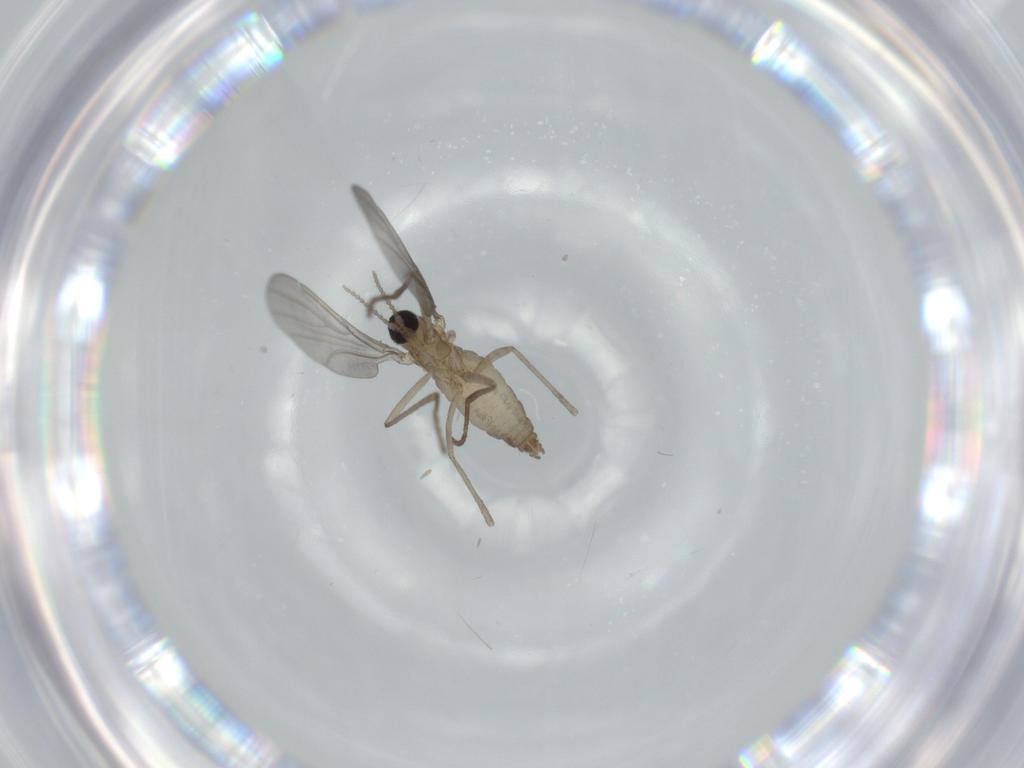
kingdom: Animalia
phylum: Arthropoda
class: Insecta
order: Diptera
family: Cecidomyiidae
